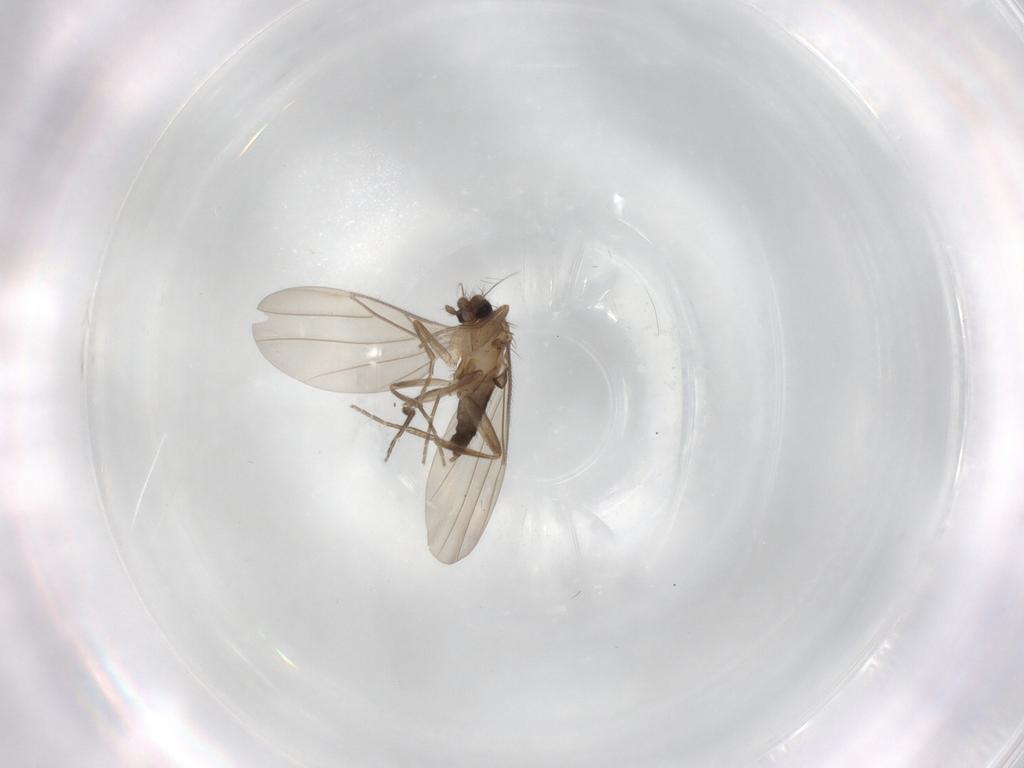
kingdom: Animalia
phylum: Arthropoda
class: Insecta
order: Diptera
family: Phoridae
